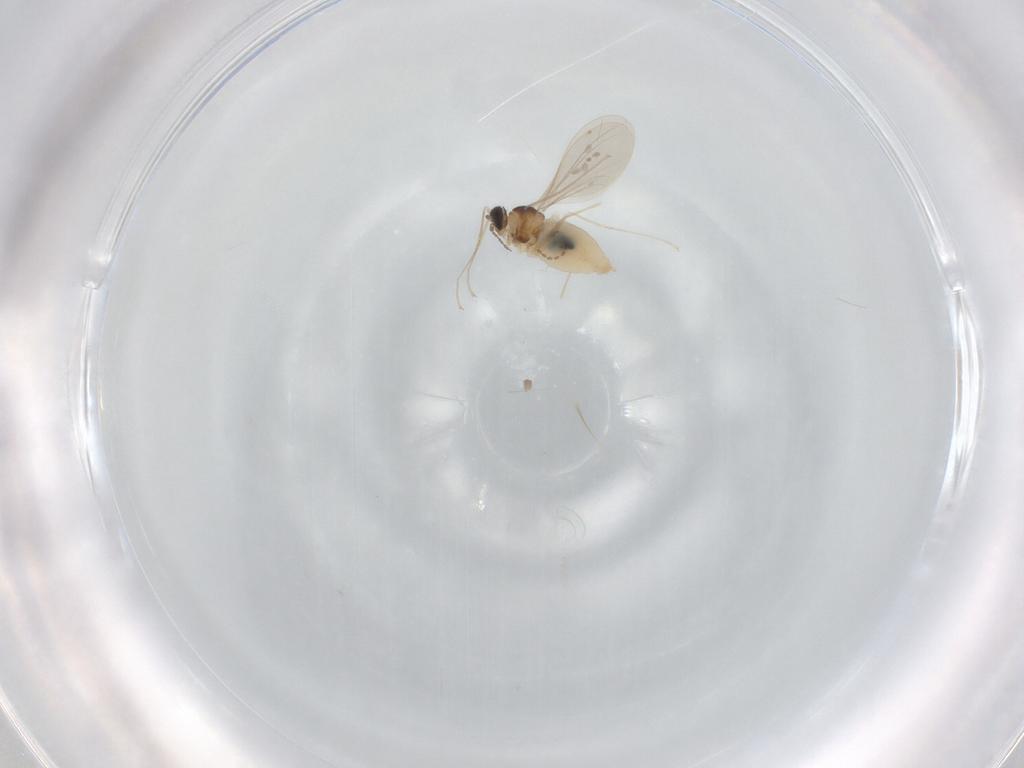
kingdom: Animalia
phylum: Arthropoda
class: Insecta
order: Diptera
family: Cecidomyiidae
